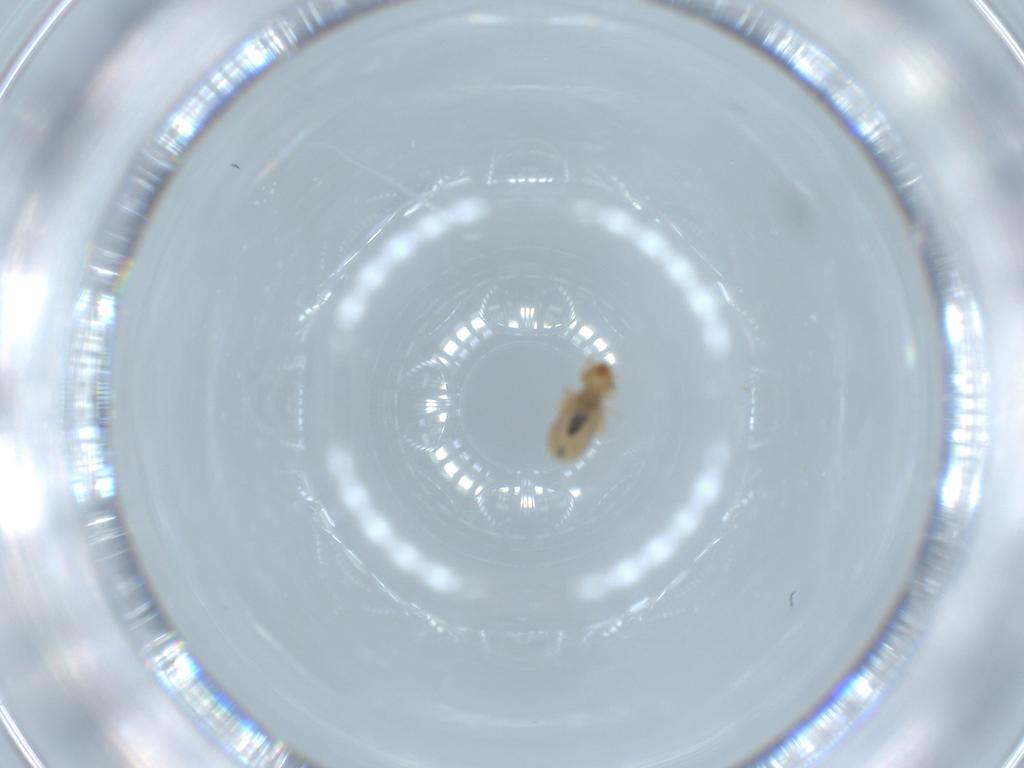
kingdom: Animalia
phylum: Arthropoda
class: Insecta
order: Psocodea
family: Liposcelididae
